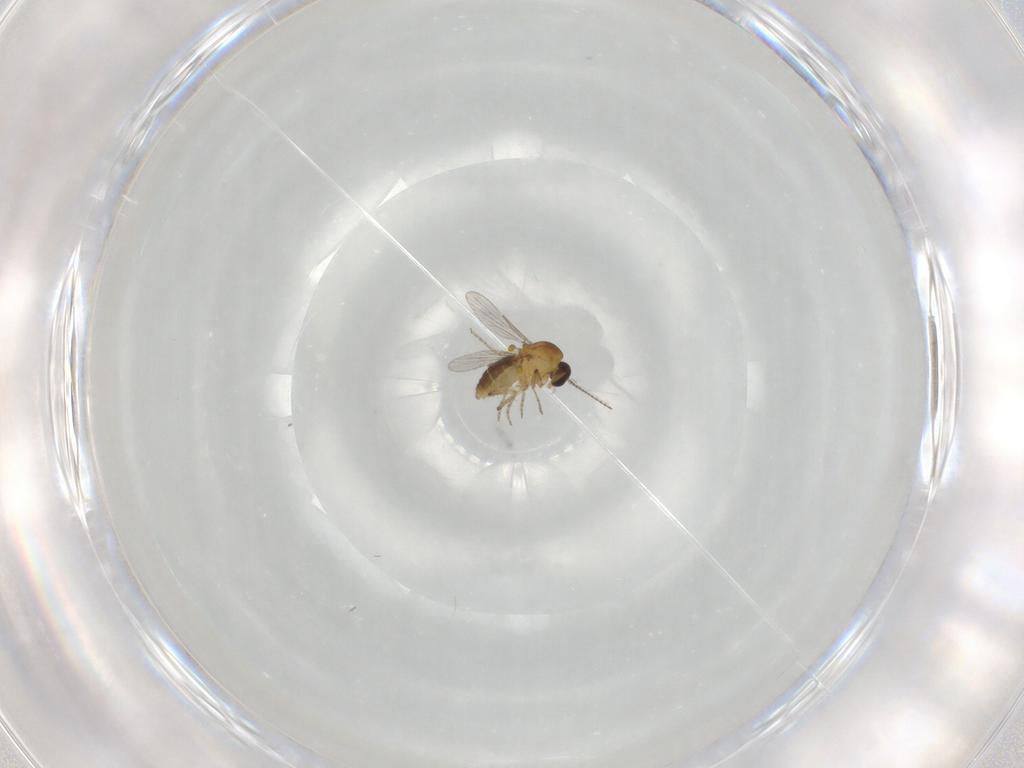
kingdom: Animalia
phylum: Arthropoda
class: Insecta
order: Diptera
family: Ceratopogonidae
